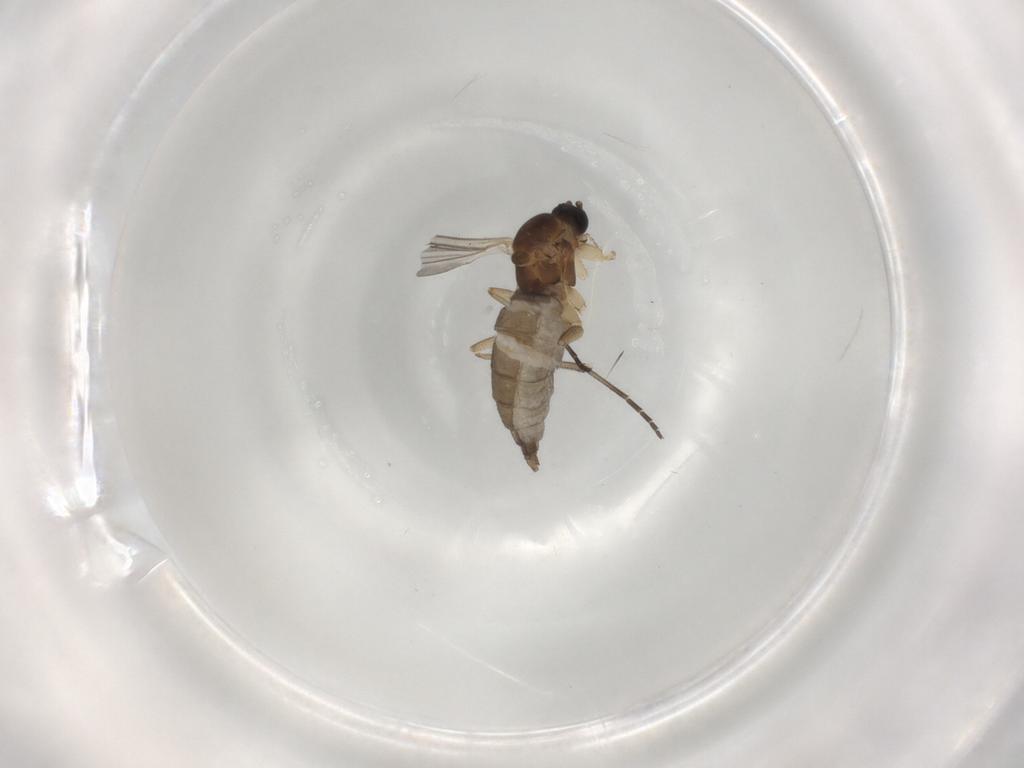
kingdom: Animalia
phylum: Arthropoda
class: Insecta
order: Diptera
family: Sciaridae
